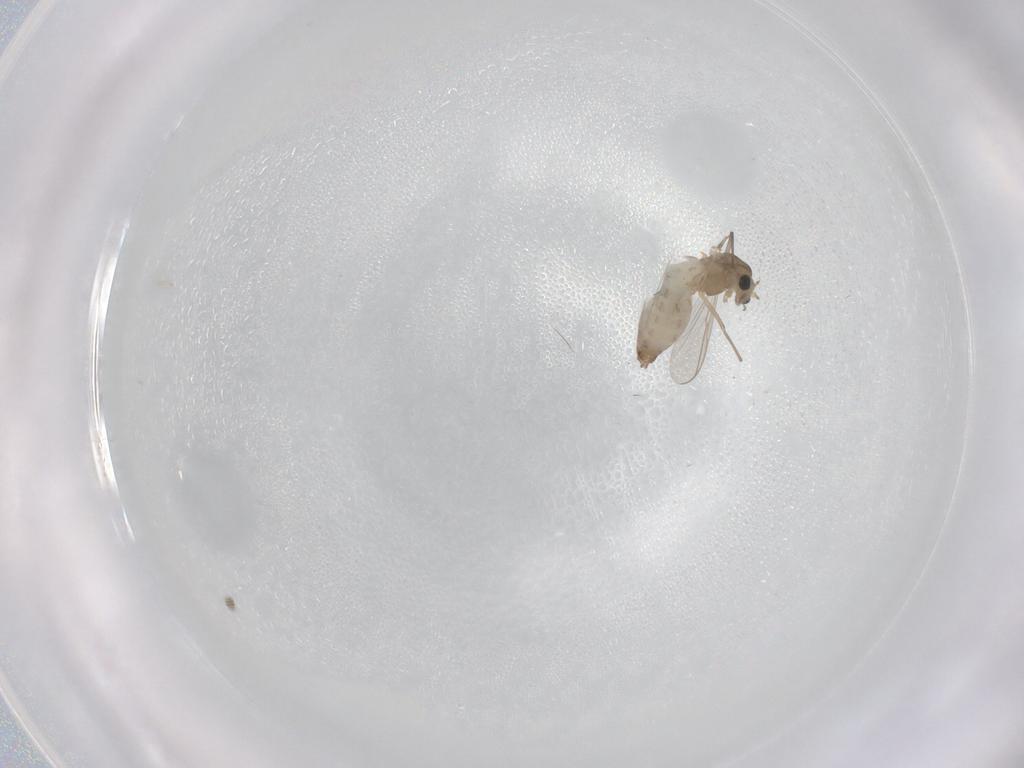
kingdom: Animalia
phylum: Arthropoda
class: Insecta
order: Diptera
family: Chironomidae
